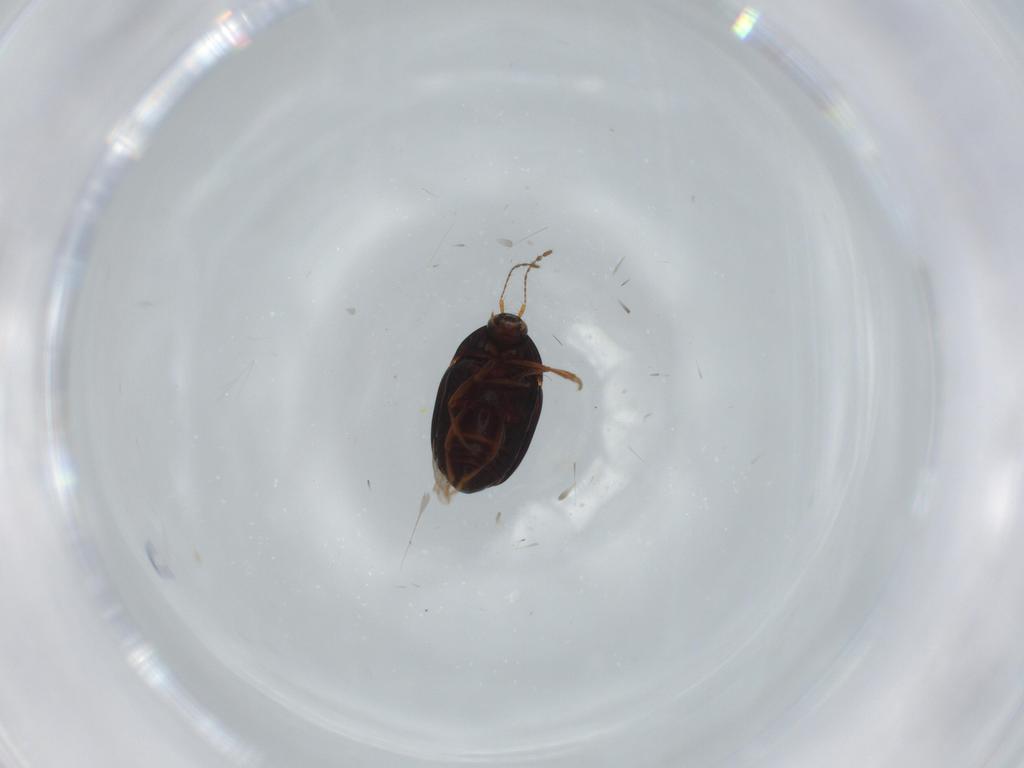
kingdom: Animalia
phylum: Arthropoda
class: Insecta
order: Coleoptera
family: Staphylinidae
